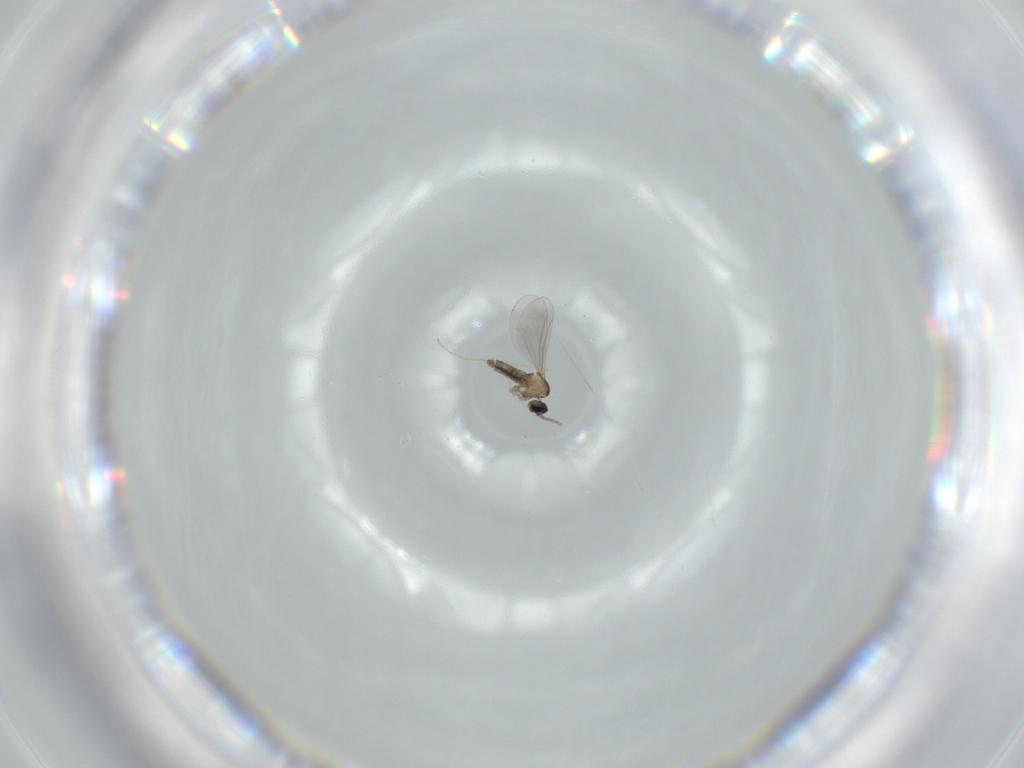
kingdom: Animalia
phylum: Arthropoda
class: Insecta
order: Diptera
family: Cecidomyiidae
